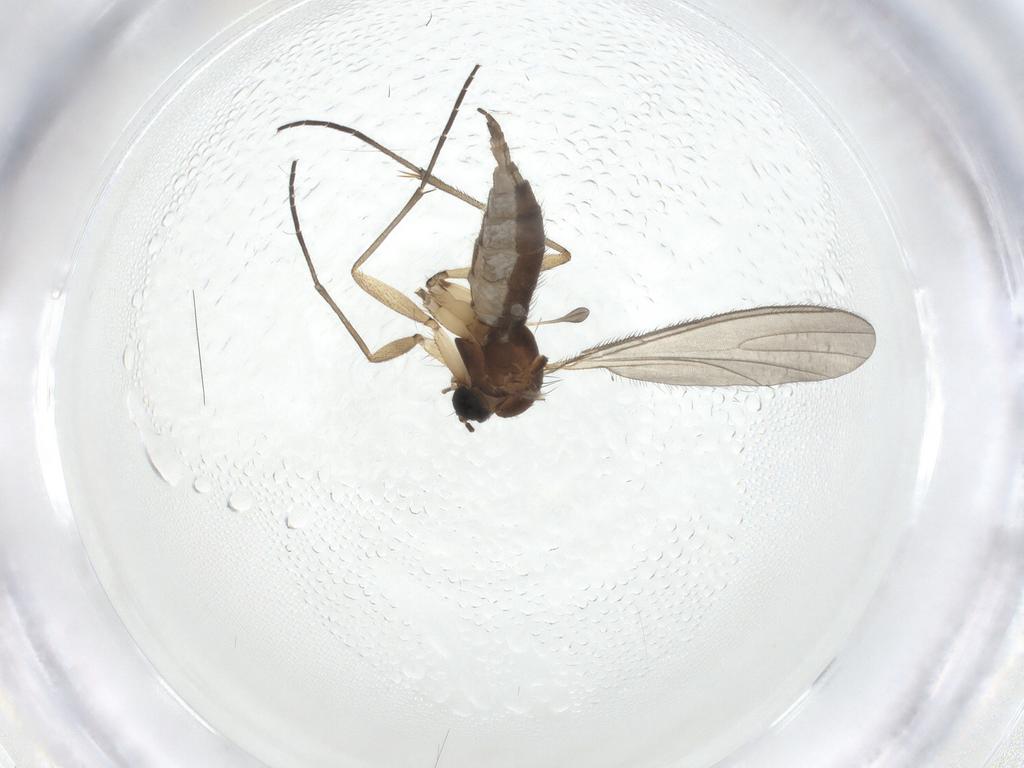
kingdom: Animalia
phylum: Arthropoda
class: Insecta
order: Diptera
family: Sciaridae
